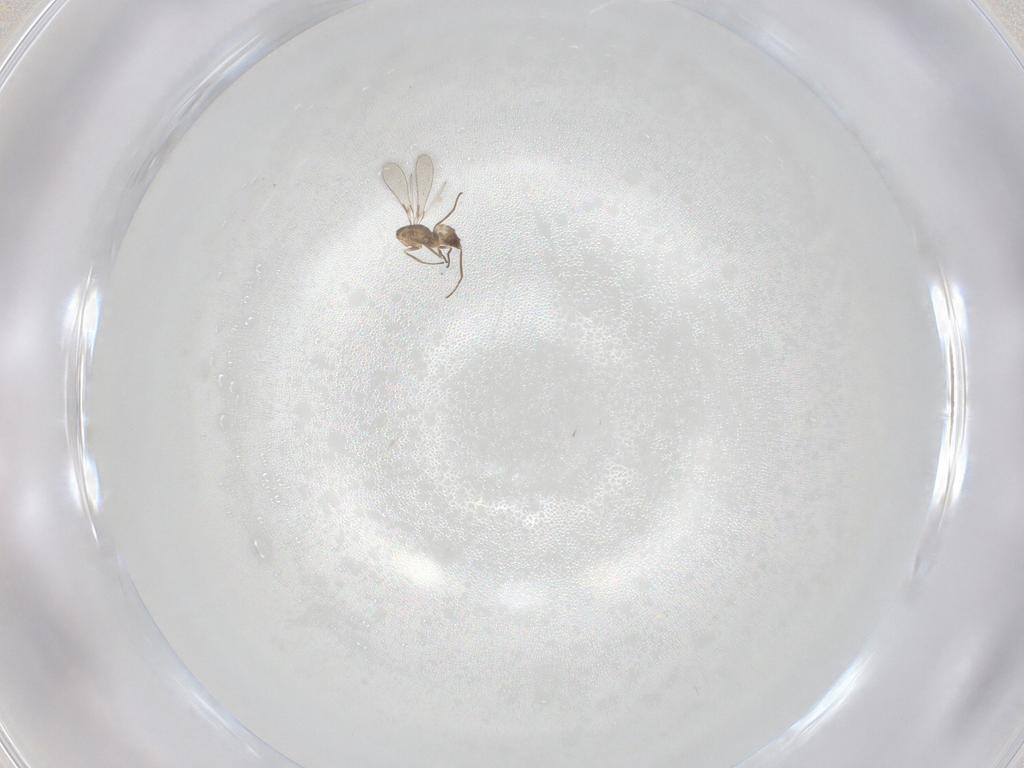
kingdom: Animalia
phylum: Arthropoda
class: Insecta
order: Hymenoptera
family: Mymaridae
